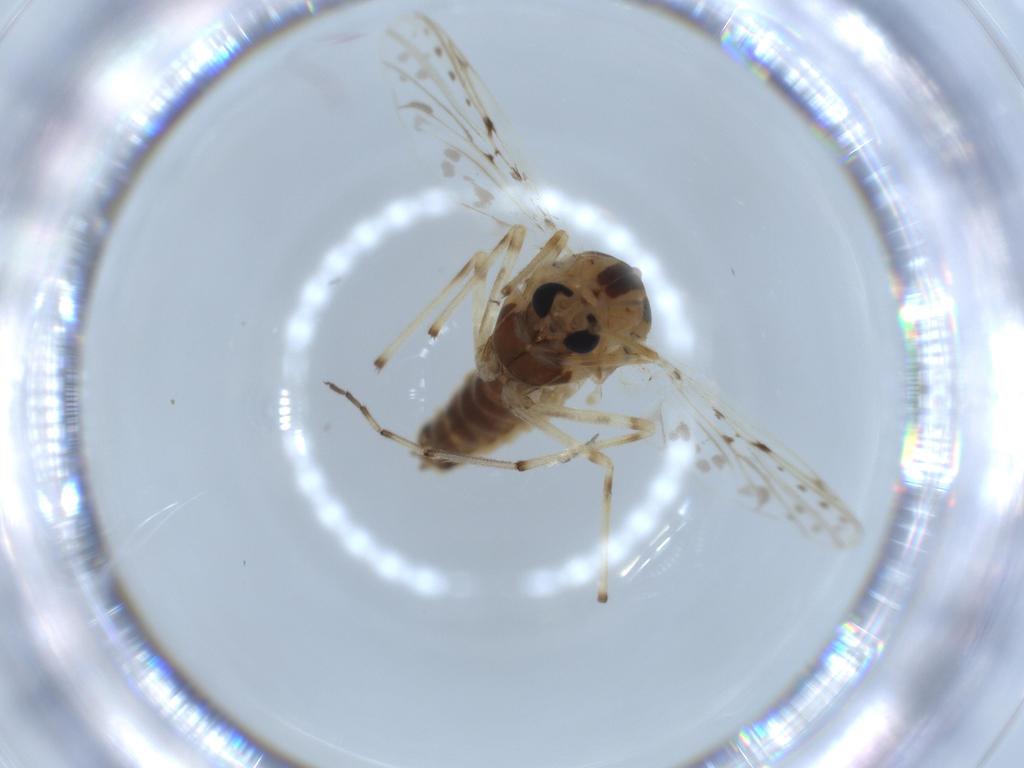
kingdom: Animalia
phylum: Arthropoda
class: Insecta
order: Diptera
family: Chironomidae
